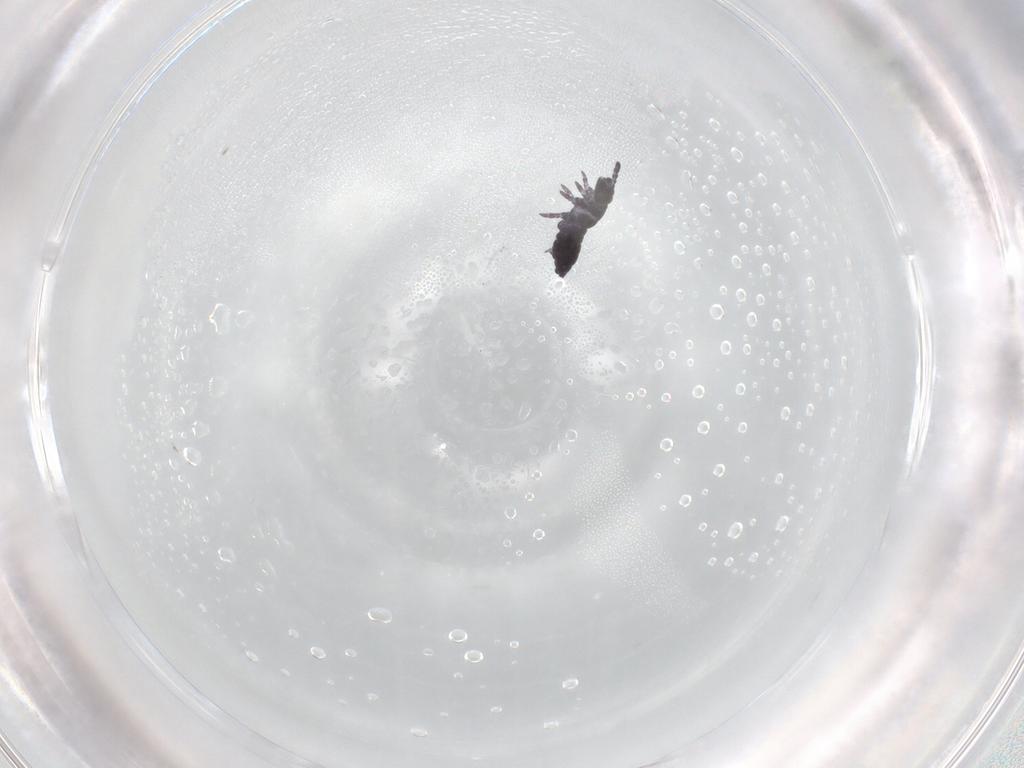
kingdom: Animalia
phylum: Arthropoda
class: Collembola
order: Poduromorpha
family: Hypogastruridae
